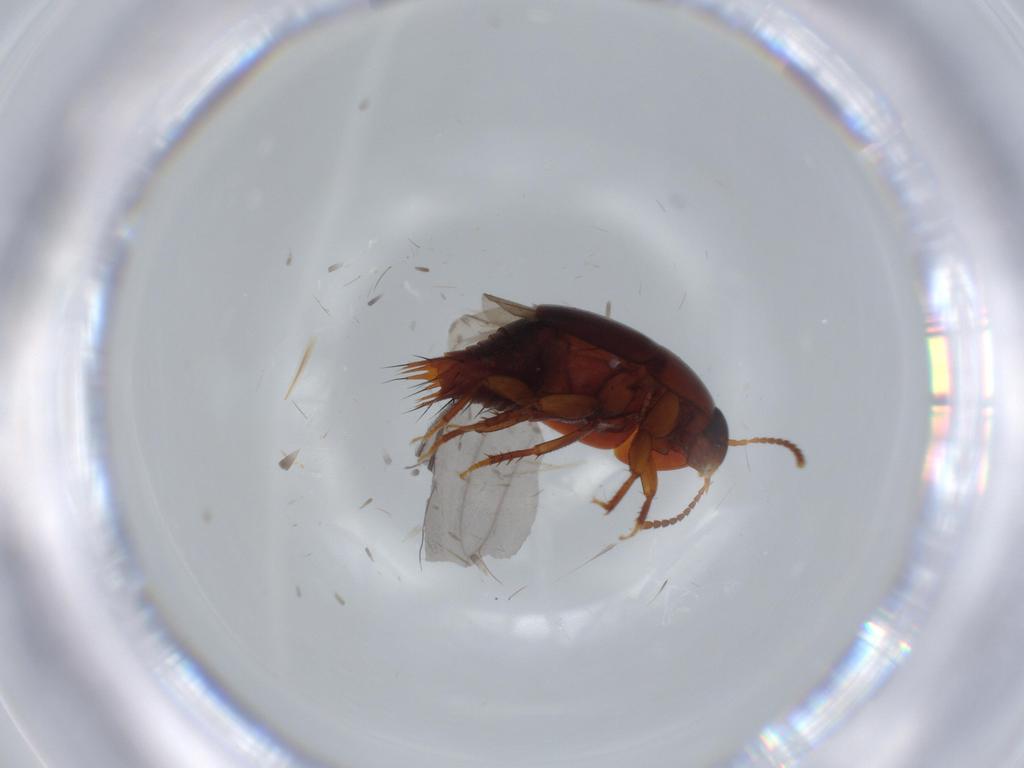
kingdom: Animalia
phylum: Arthropoda
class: Insecta
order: Coleoptera
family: Staphylinidae
